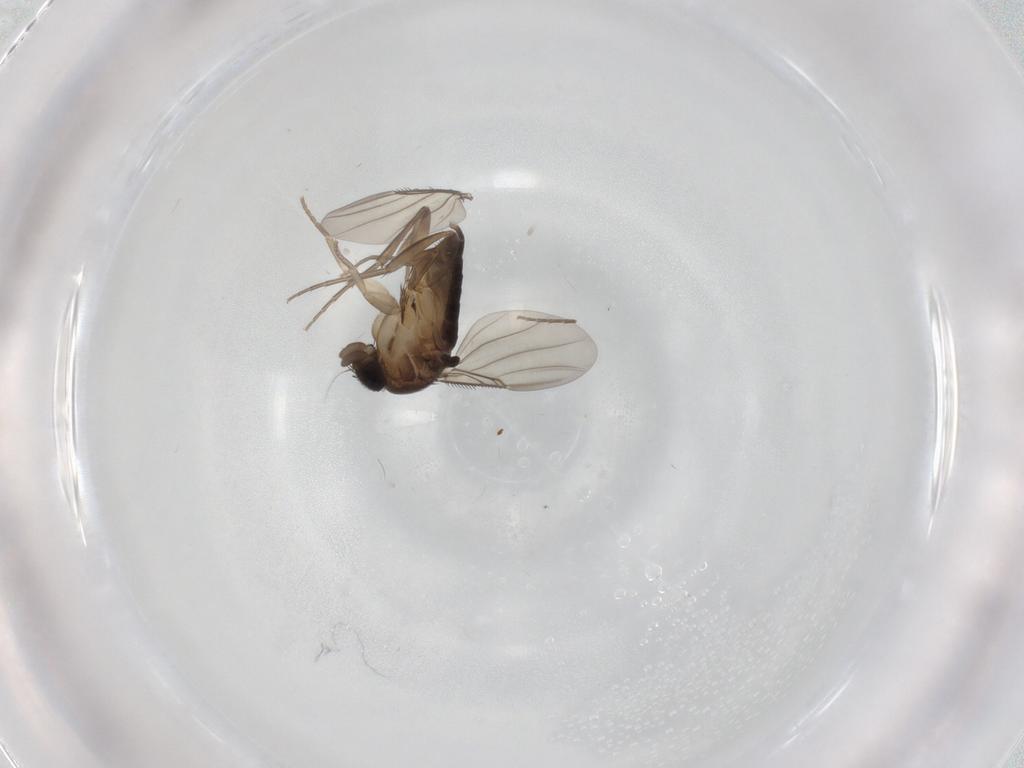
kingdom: Animalia
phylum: Arthropoda
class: Insecta
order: Diptera
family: Phoridae
